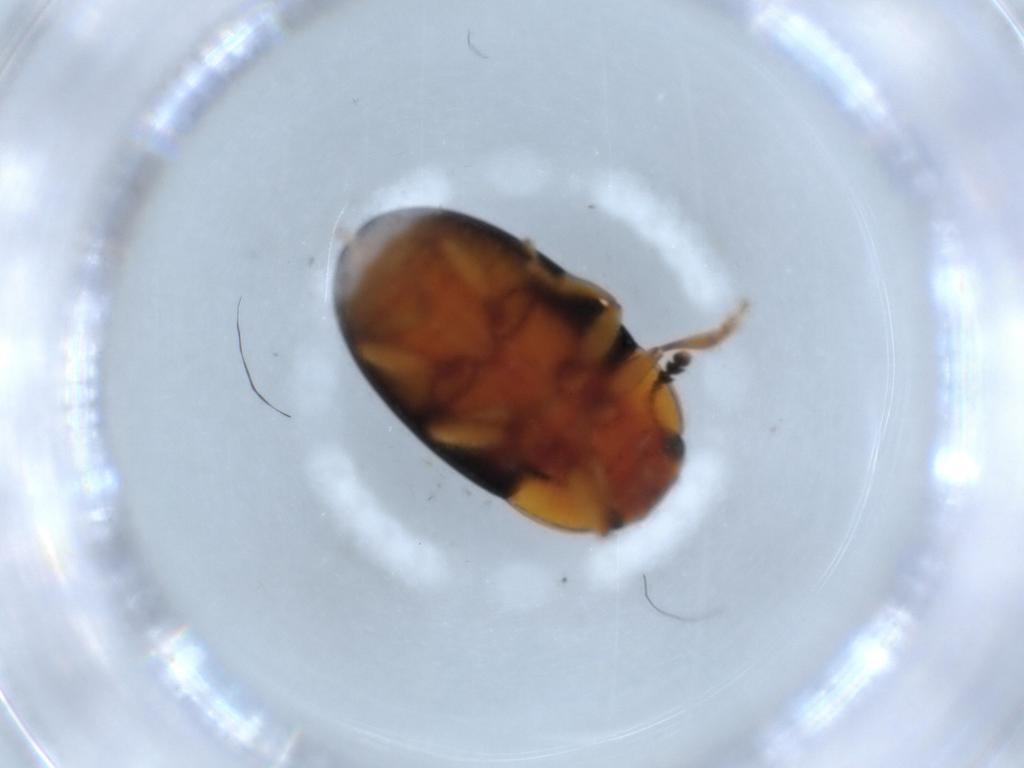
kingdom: Animalia
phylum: Arthropoda
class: Insecta
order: Coleoptera
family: Erotylidae
